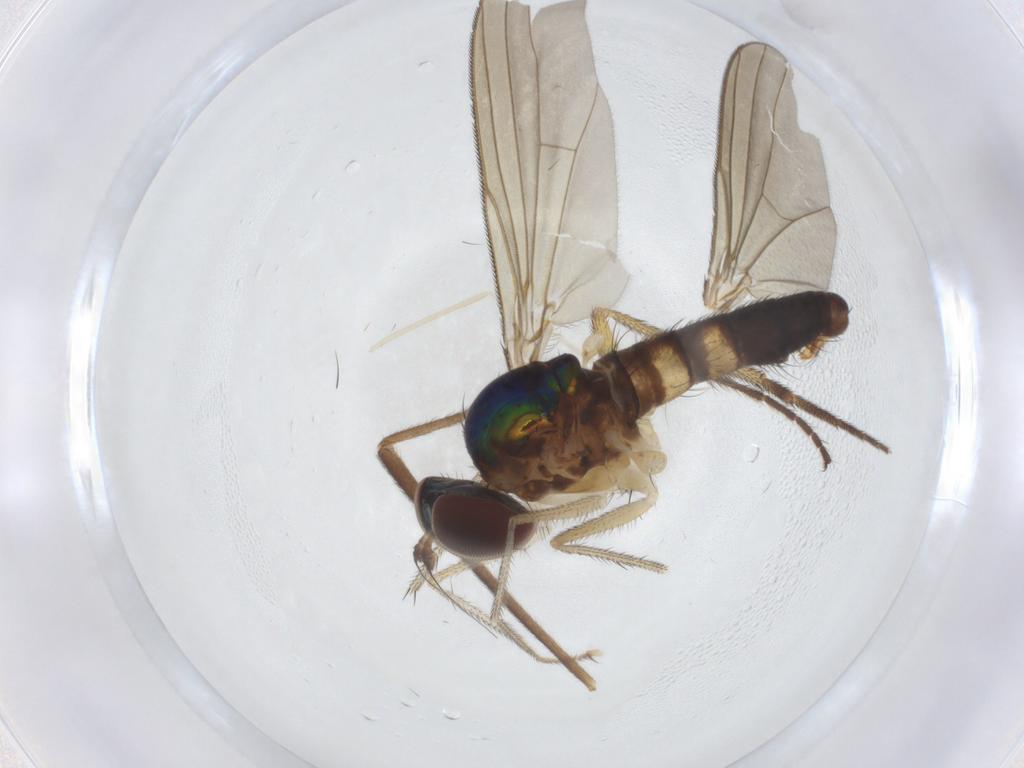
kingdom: Animalia
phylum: Arthropoda
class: Insecta
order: Diptera
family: Dolichopodidae
